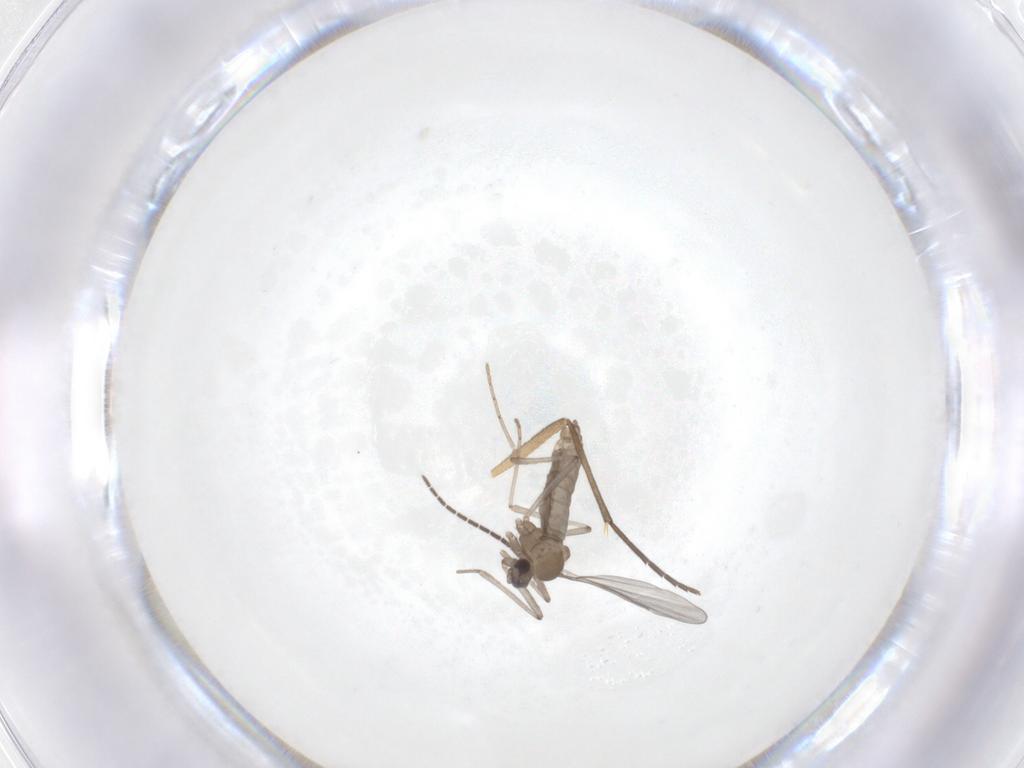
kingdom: Animalia
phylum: Arthropoda
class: Insecta
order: Diptera
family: Cecidomyiidae
